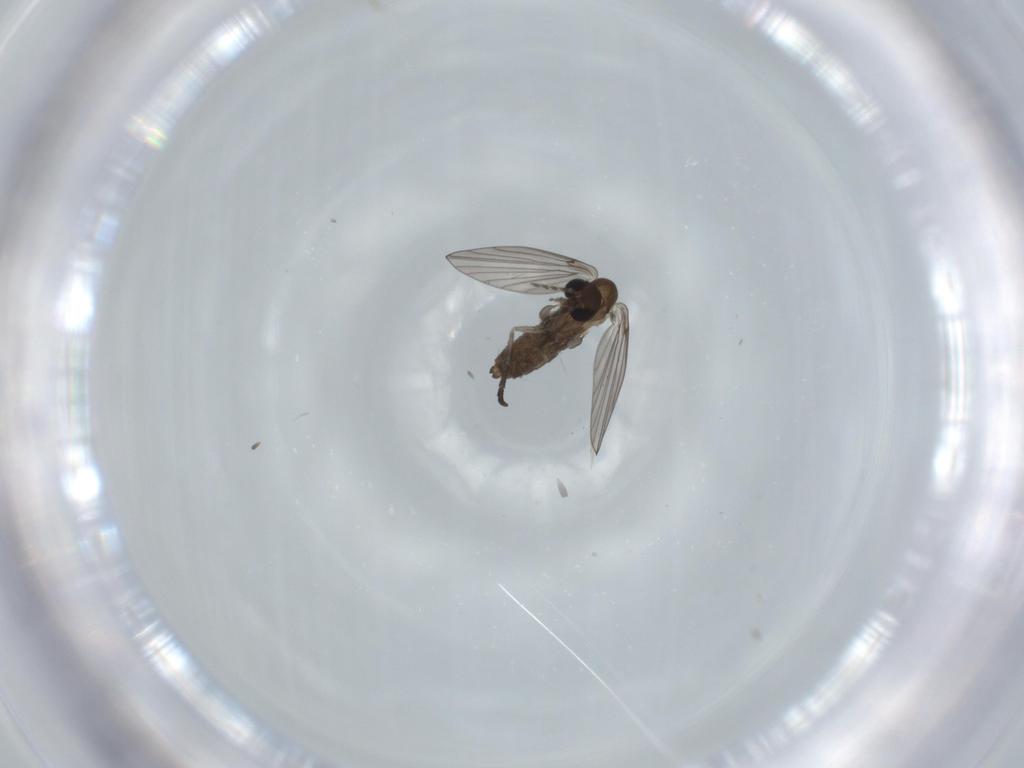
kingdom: Animalia
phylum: Arthropoda
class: Insecta
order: Diptera
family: Psychodidae
